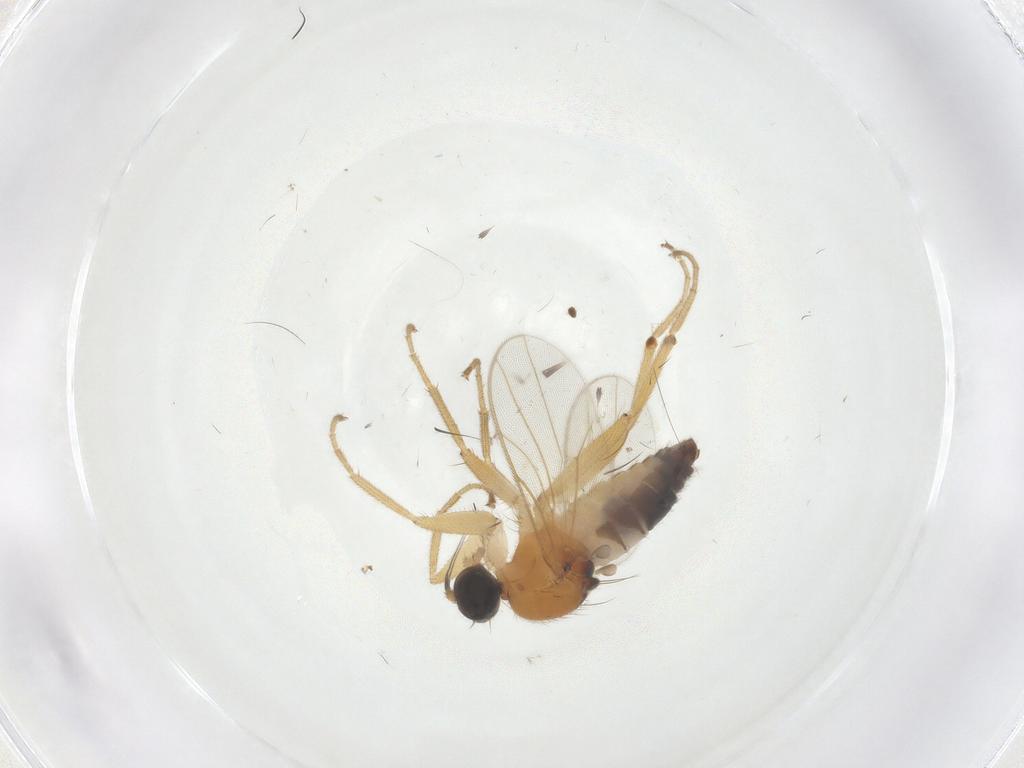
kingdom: Animalia
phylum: Arthropoda
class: Insecta
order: Diptera
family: Hybotidae
